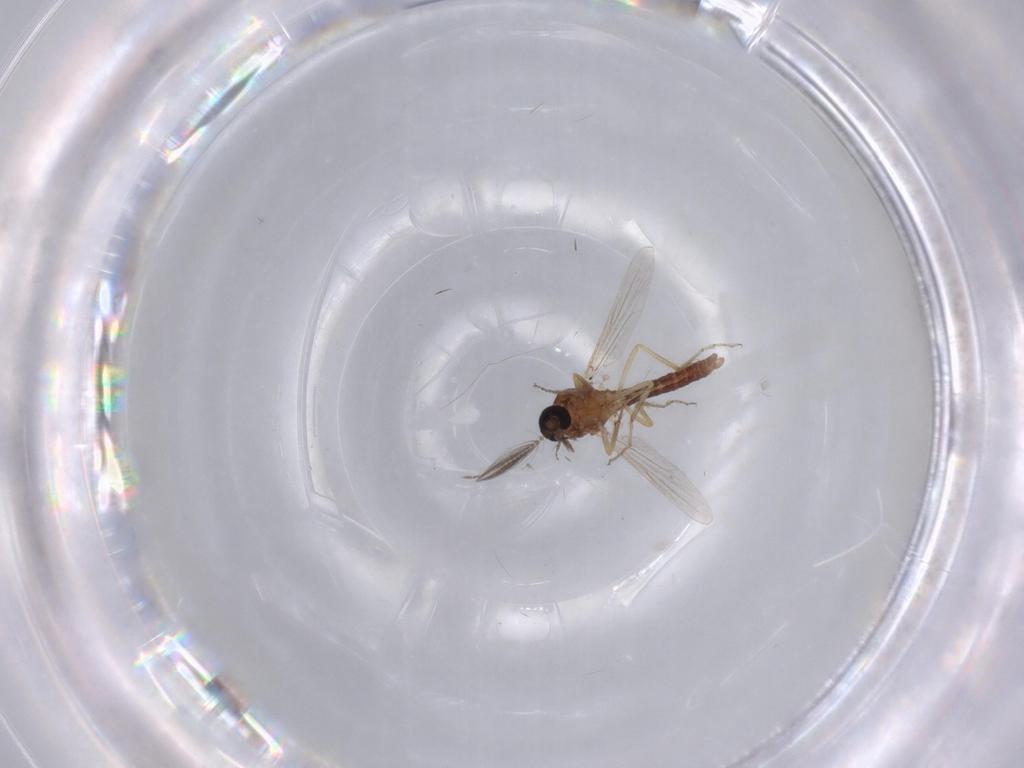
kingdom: Animalia
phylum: Arthropoda
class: Insecta
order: Diptera
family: Ceratopogonidae
